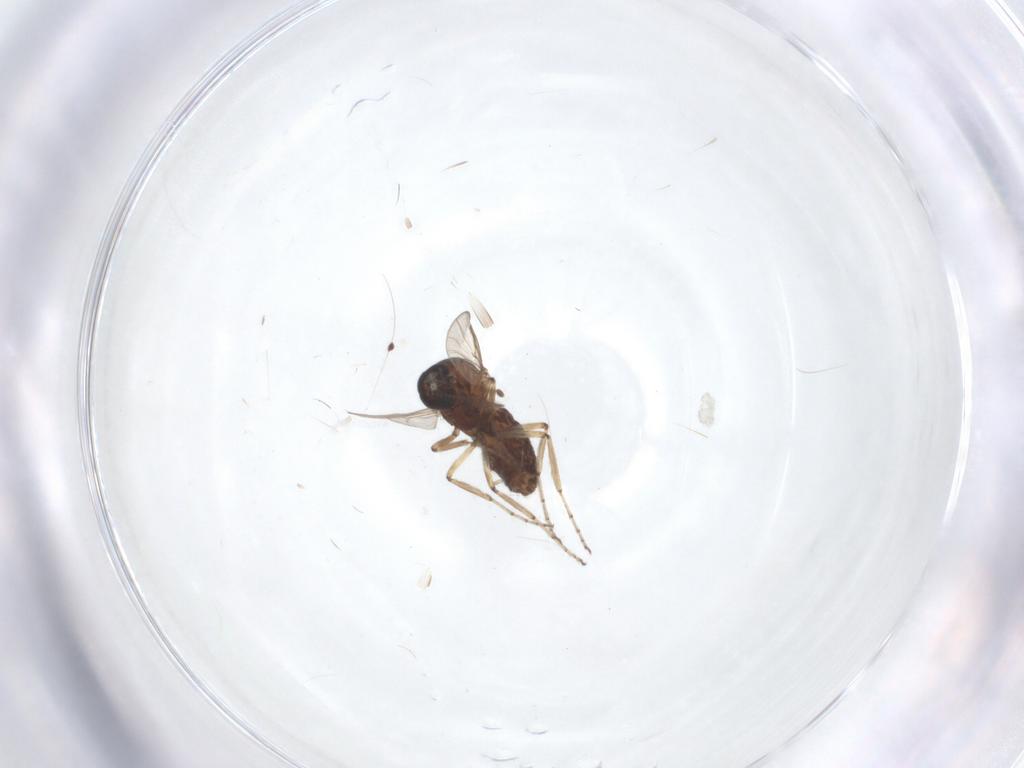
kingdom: Animalia
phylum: Arthropoda
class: Insecta
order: Diptera
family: Ceratopogonidae
